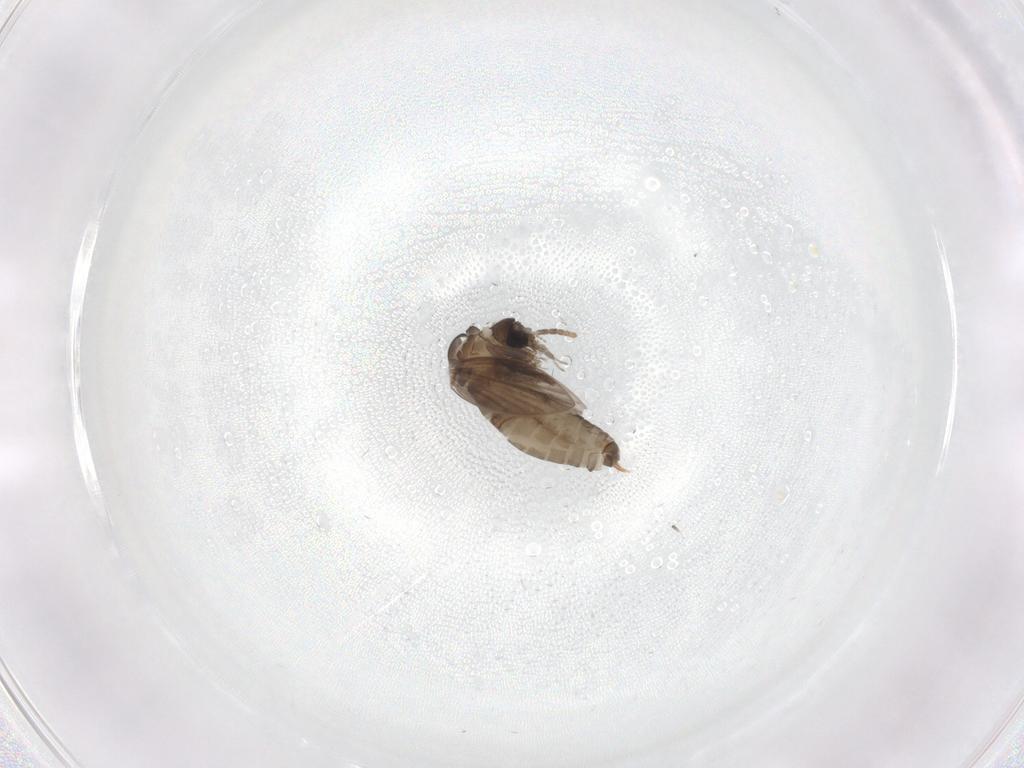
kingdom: Animalia
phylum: Arthropoda
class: Insecta
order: Diptera
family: Psychodidae
